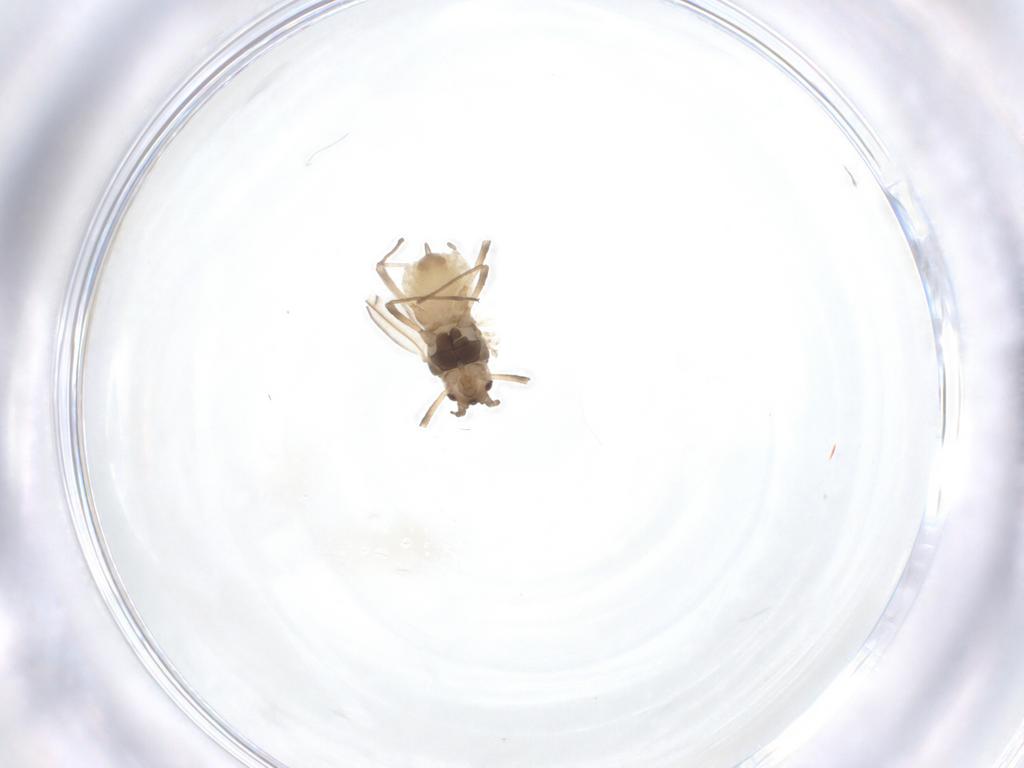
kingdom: Animalia
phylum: Arthropoda
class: Insecta
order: Hemiptera
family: Aphididae
